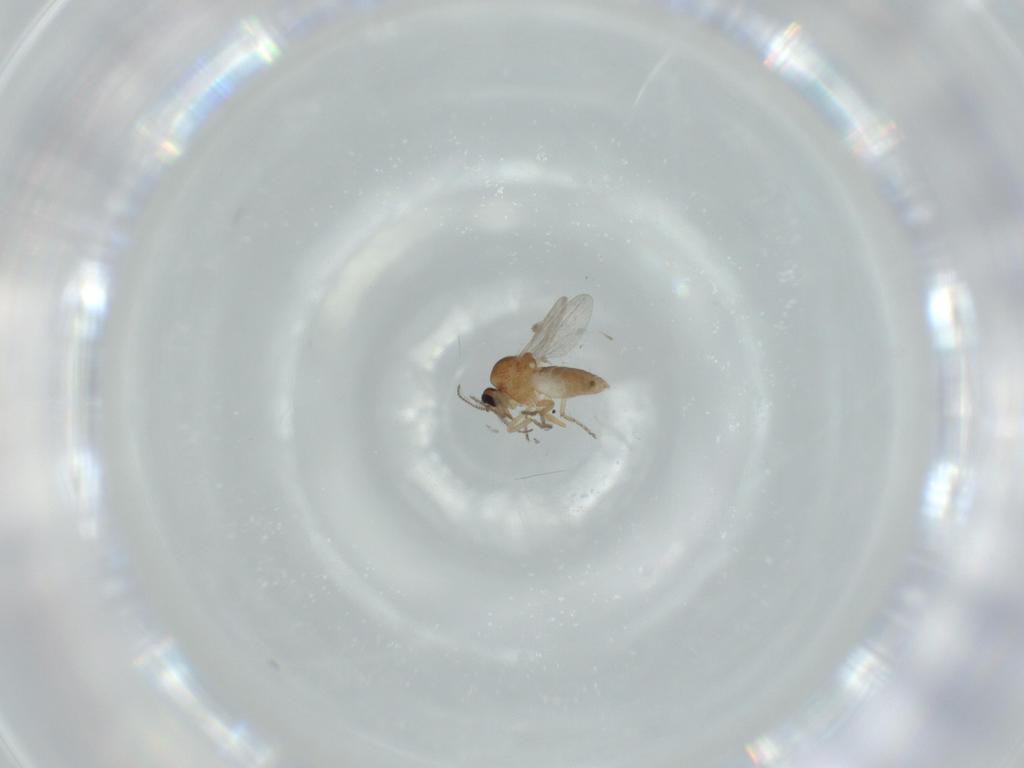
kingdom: Animalia
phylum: Arthropoda
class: Insecta
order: Diptera
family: Ceratopogonidae
